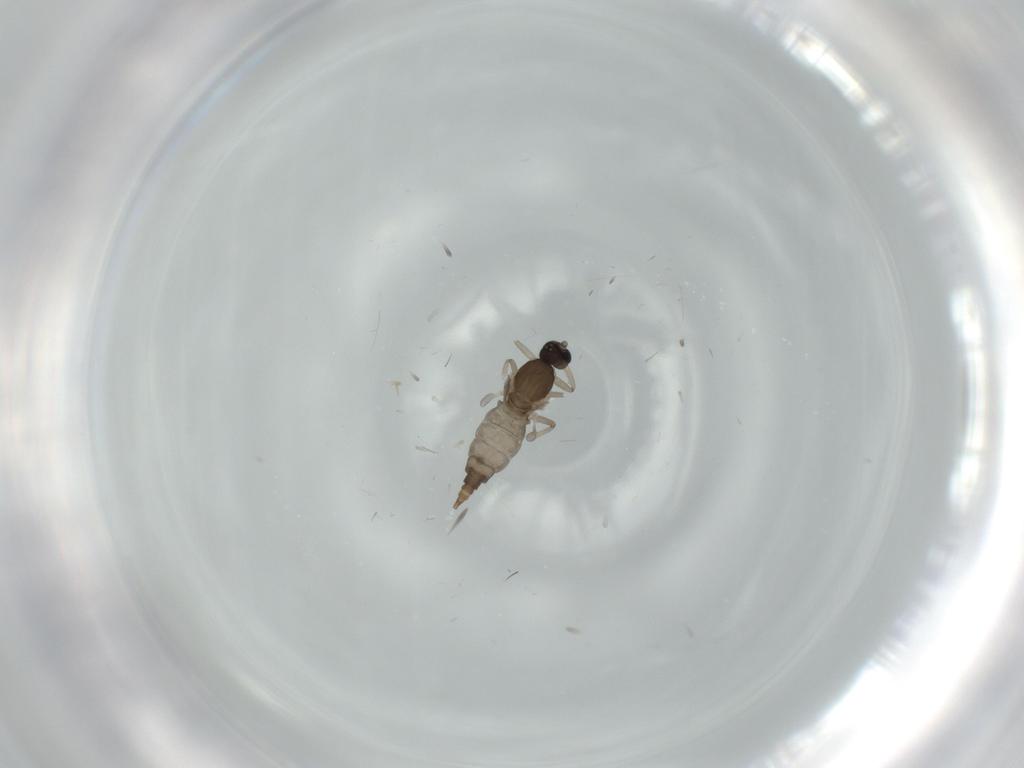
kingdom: Animalia
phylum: Arthropoda
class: Insecta
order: Diptera
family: Cecidomyiidae
